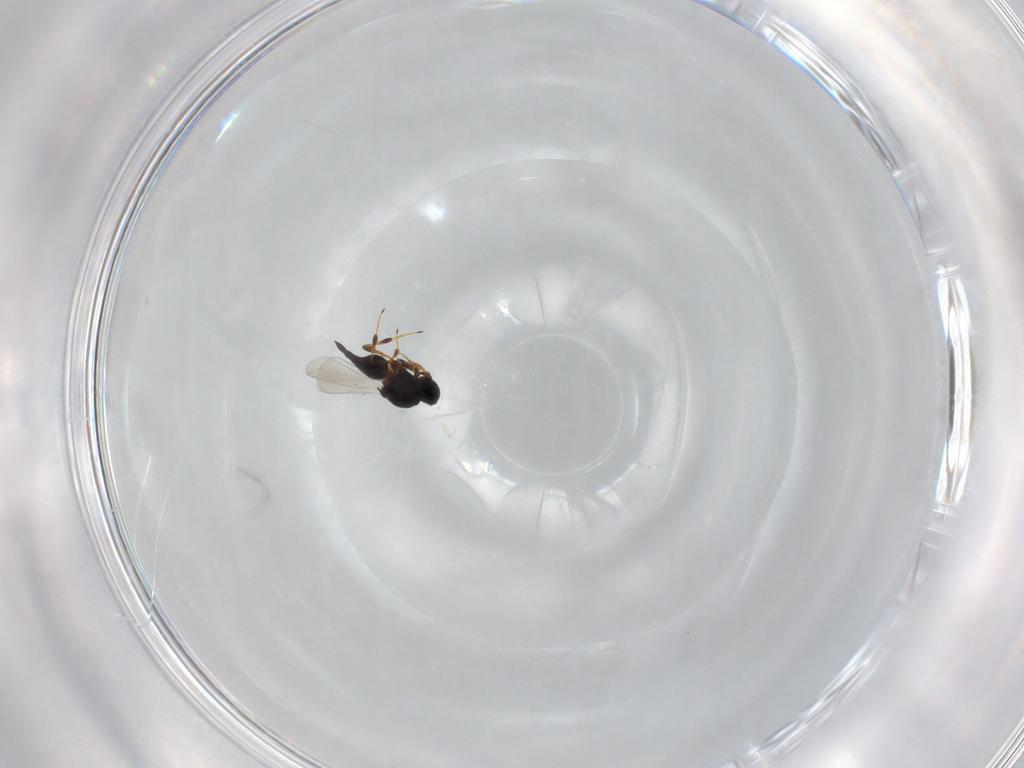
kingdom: Animalia
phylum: Arthropoda
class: Insecta
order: Hymenoptera
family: Platygastridae
